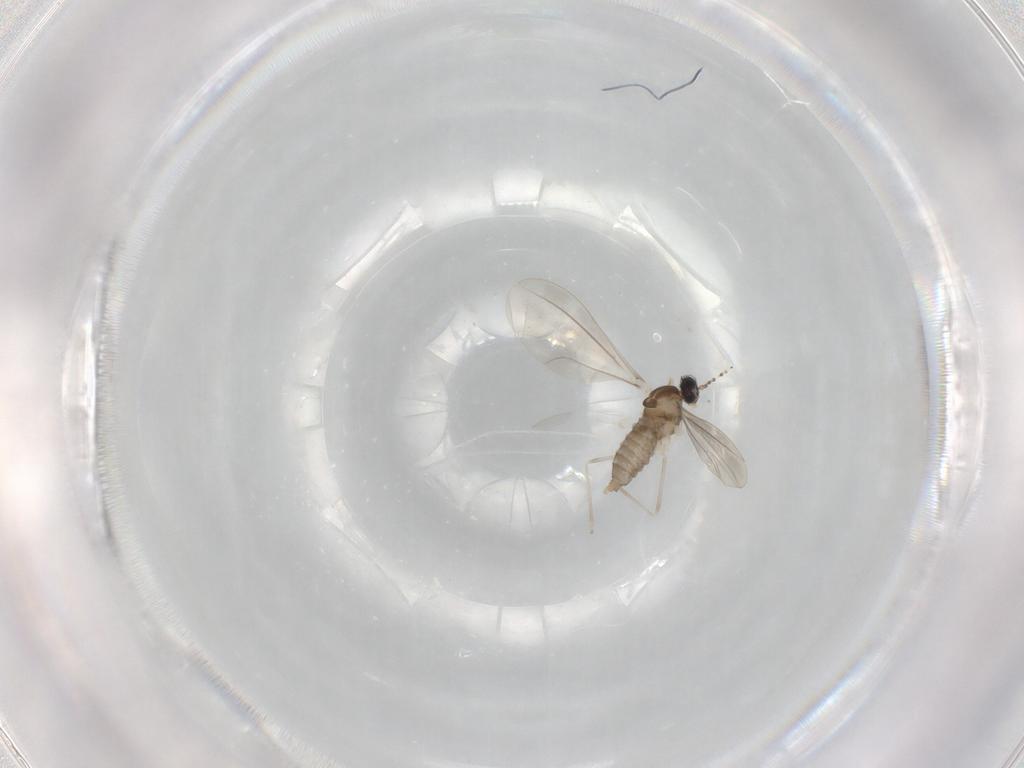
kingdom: Animalia
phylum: Arthropoda
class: Insecta
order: Diptera
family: Cecidomyiidae
